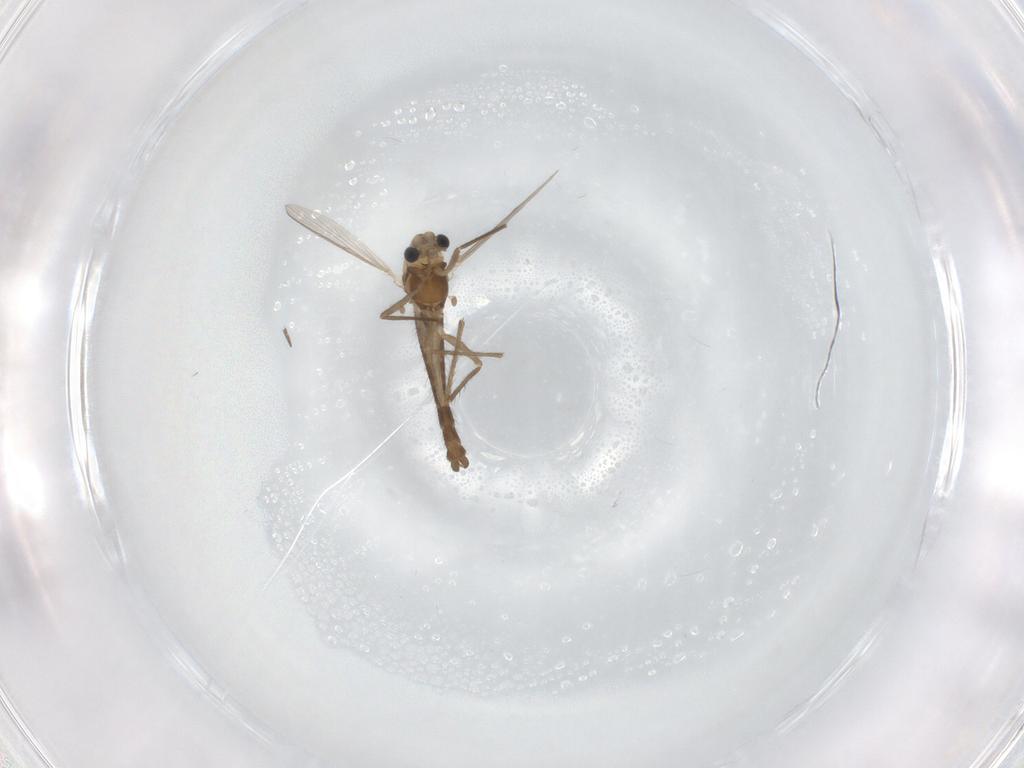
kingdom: Animalia
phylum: Arthropoda
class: Insecta
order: Diptera
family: Chironomidae
